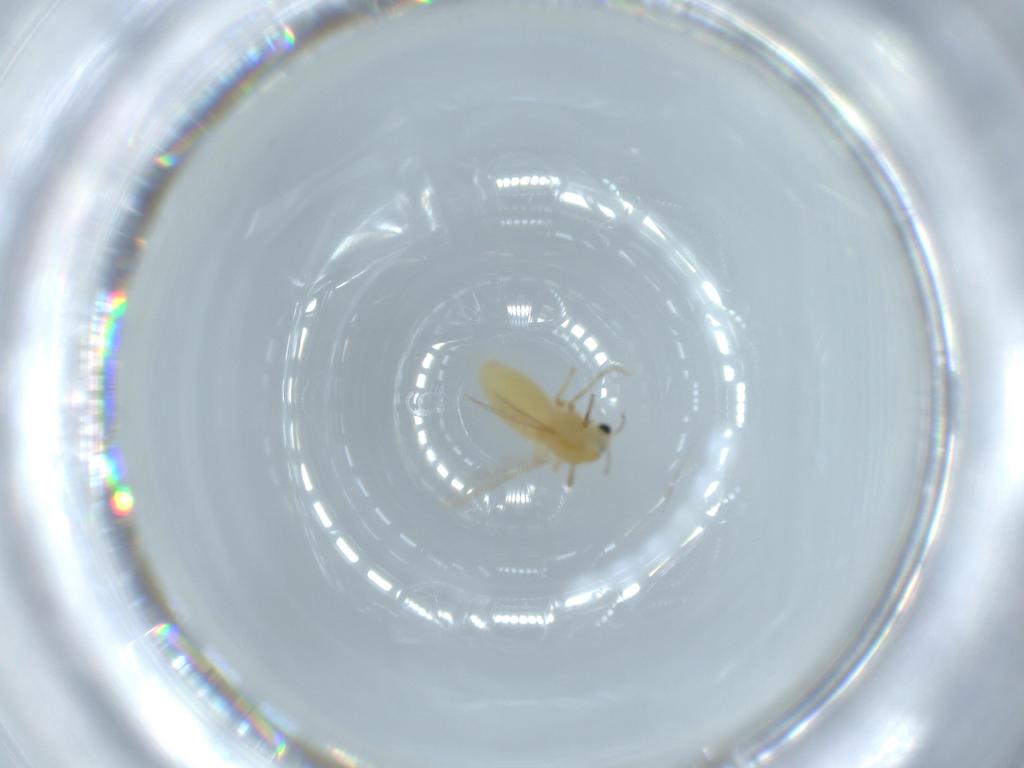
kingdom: Animalia
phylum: Arthropoda
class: Insecta
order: Diptera
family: Chironomidae
